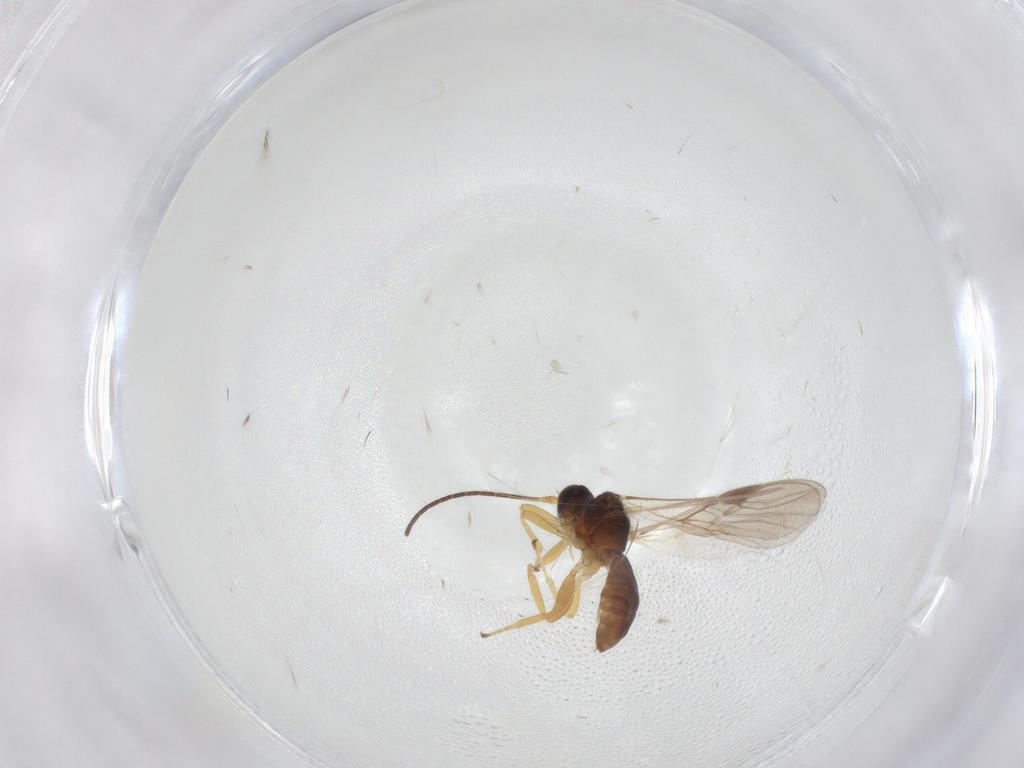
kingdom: Animalia
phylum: Arthropoda
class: Insecta
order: Hymenoptera
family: Braconidae
